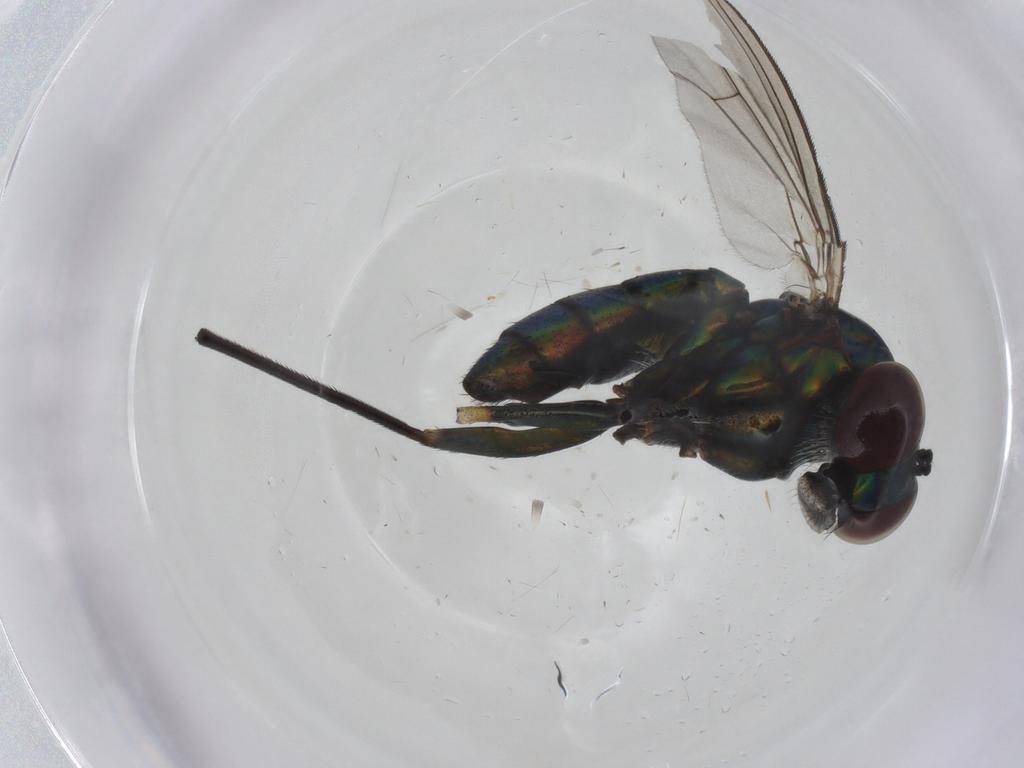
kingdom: Animalia
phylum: Arthropoda
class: Insecta
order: Diptera
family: Dolichopodidae
